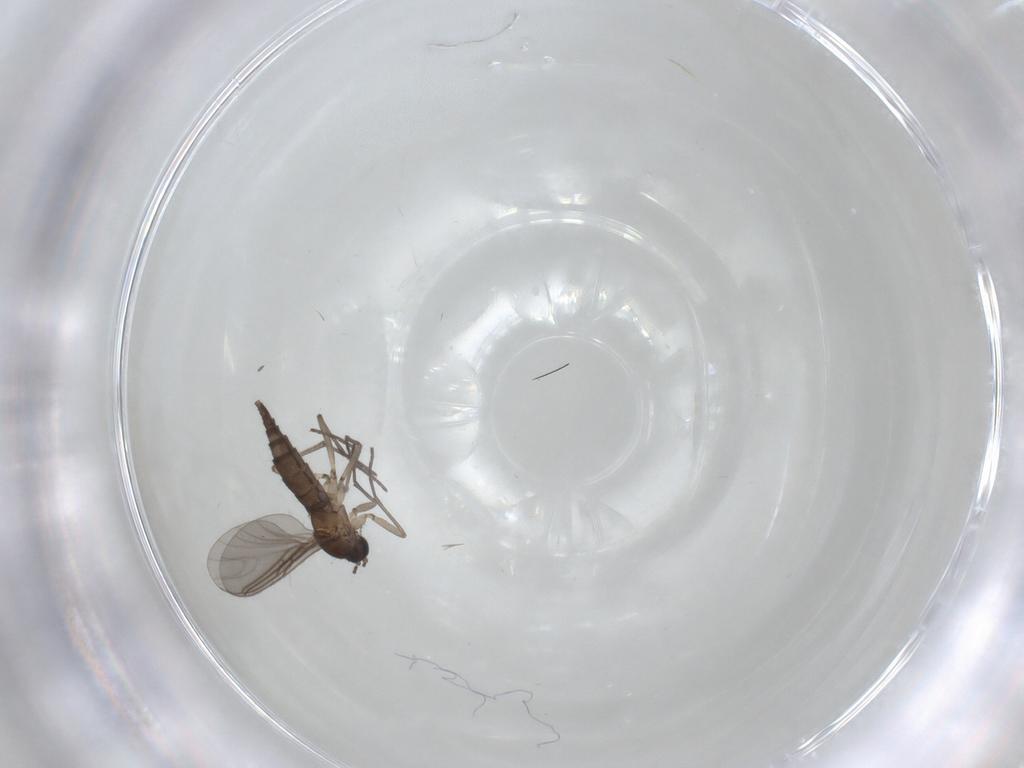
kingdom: Animalia
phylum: Arthropoda
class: Insecta
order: Diptera
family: Sciaridae
